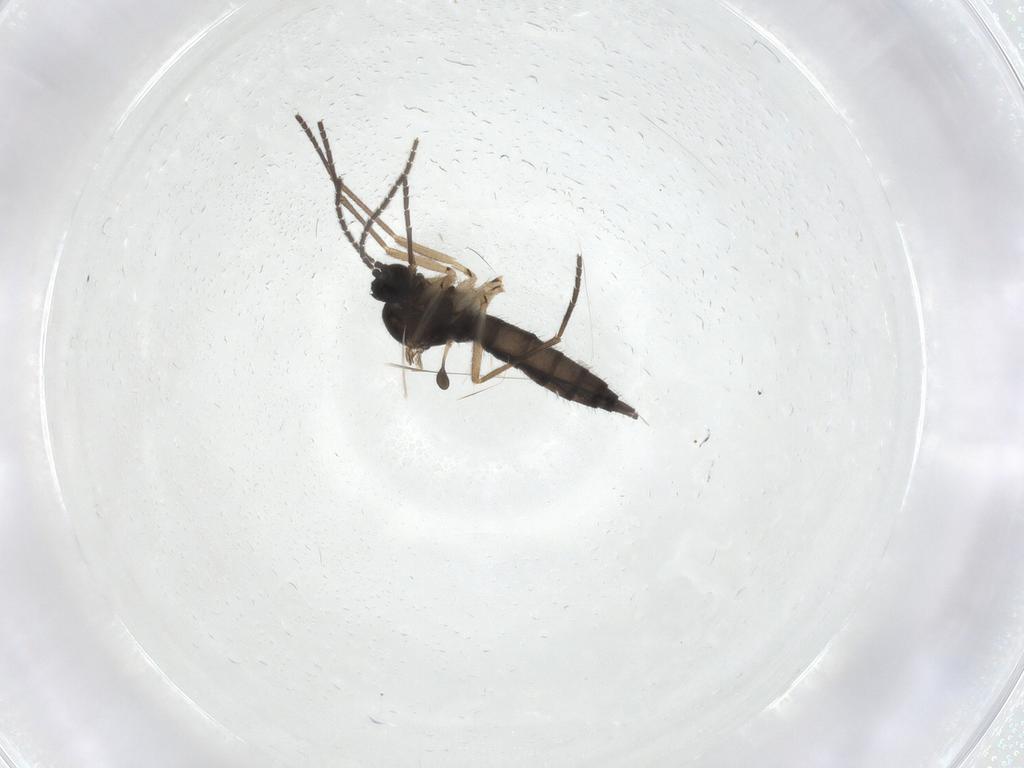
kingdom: Animalia
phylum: Arthropoda
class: Insecta
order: Diptera
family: Sciaridae
